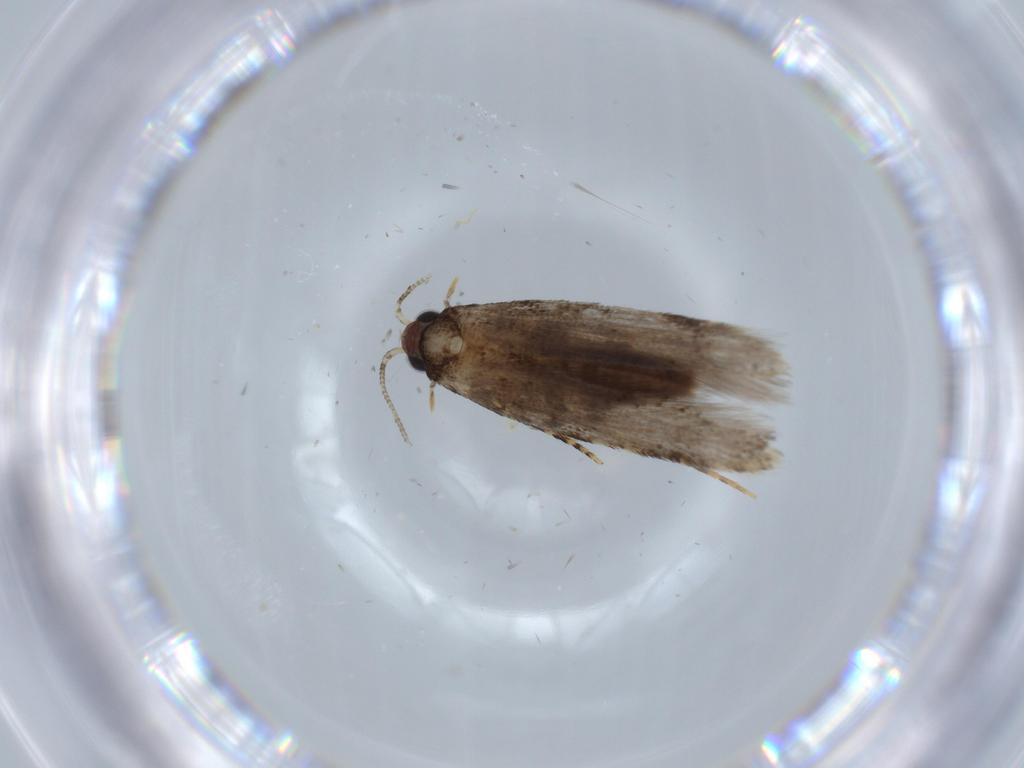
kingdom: Animalia
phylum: Arthropoda
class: Insecta
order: Lepidoptera
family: Tineidae
